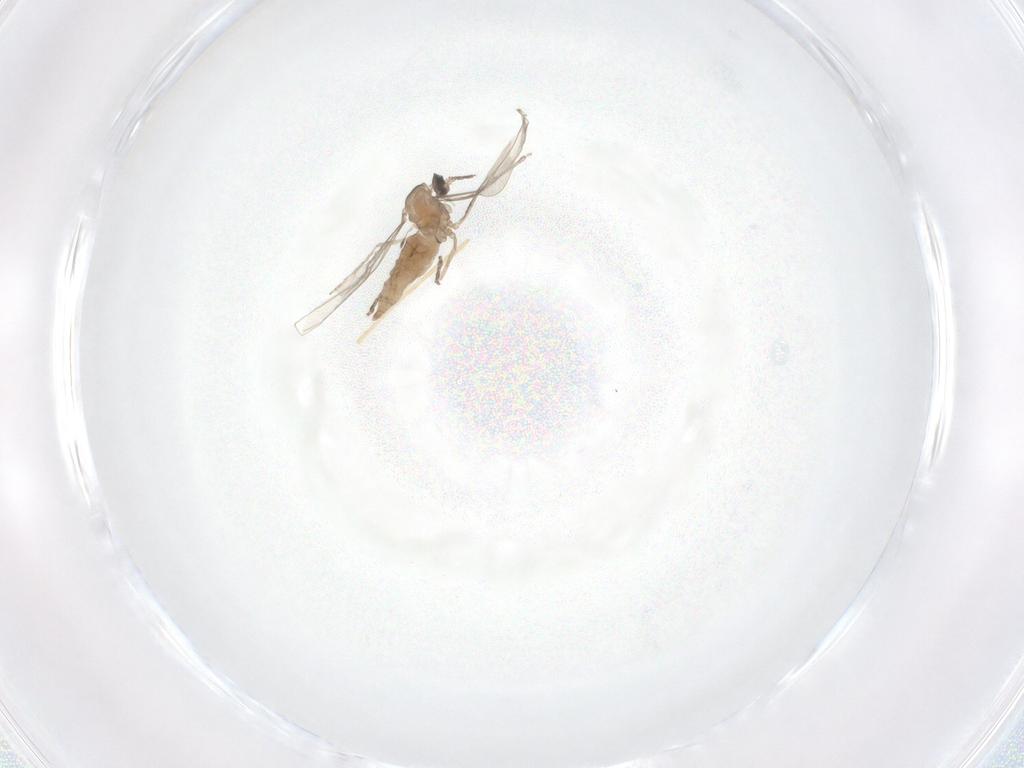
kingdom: Animalia
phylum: Arthropoda
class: Insecta
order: Diptera
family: Cecidomyiidae
